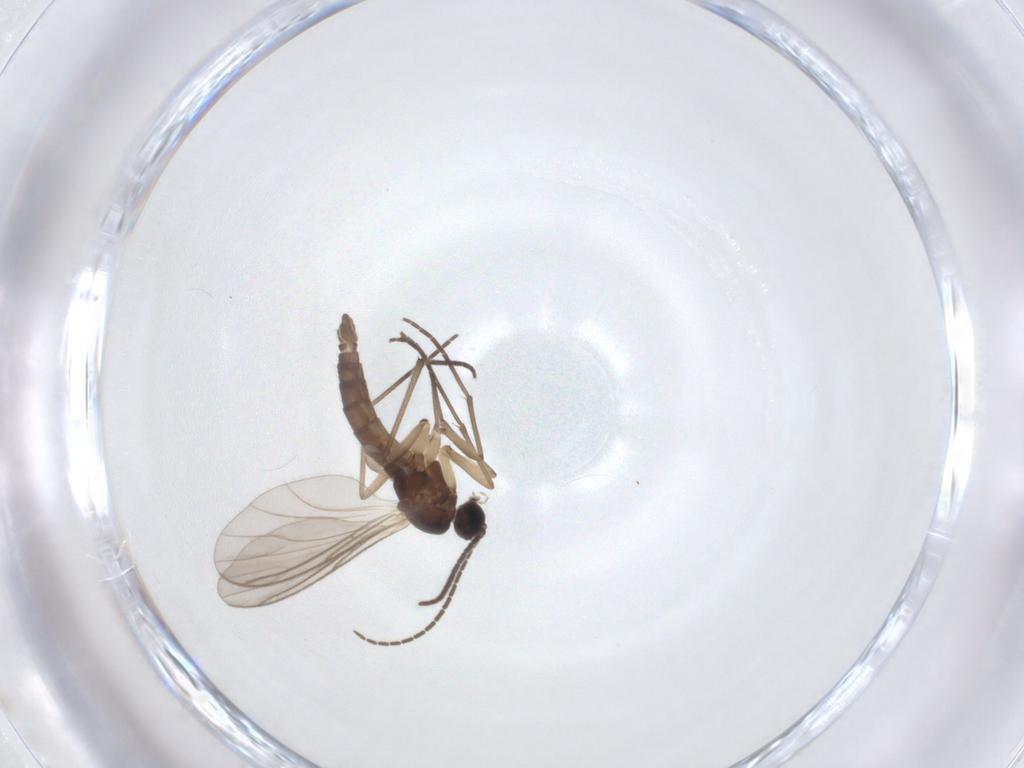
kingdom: Animalia
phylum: Arthropoda
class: Insecta
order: Diptera
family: Sciaridae
